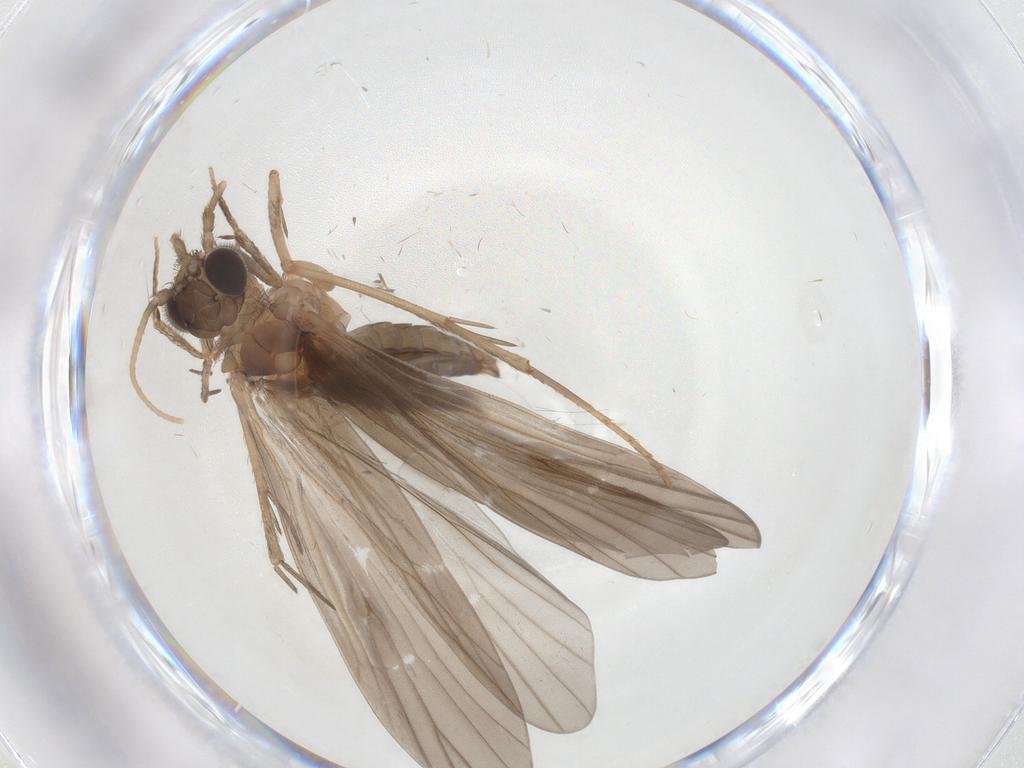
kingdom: Animalia
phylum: Arthropoda
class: Insecta
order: Trichoptera
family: Philopotamidae
